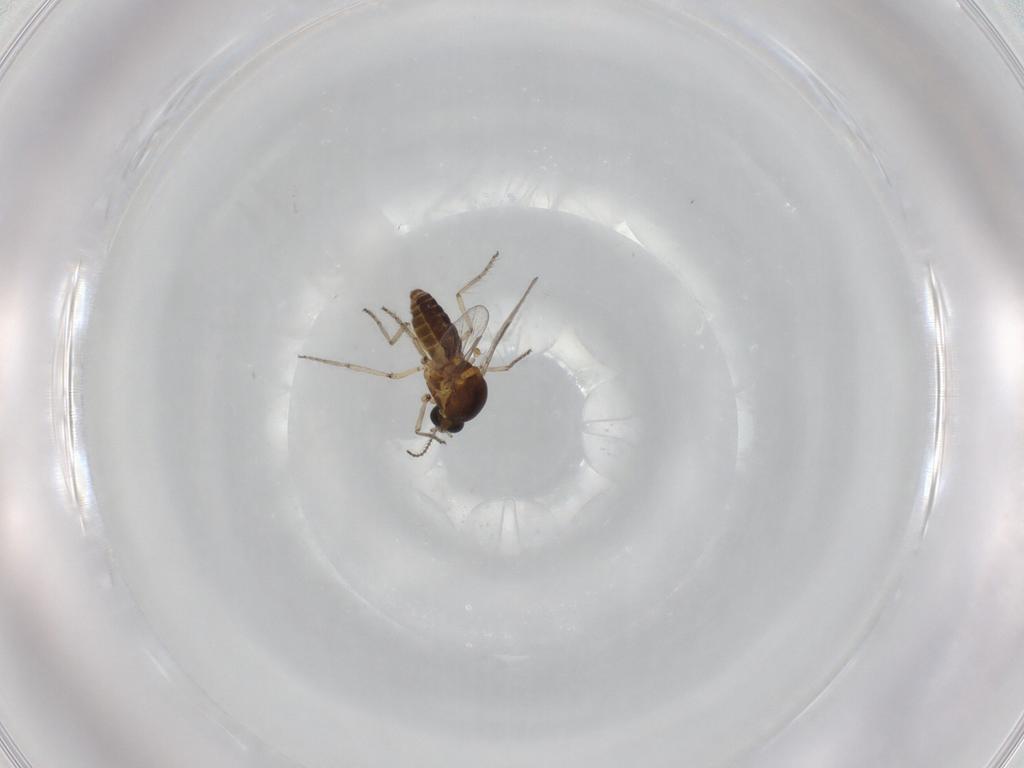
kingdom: Animalia
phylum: Arthropoda
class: Insecta
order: Diptera
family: Ceratopogonidae
